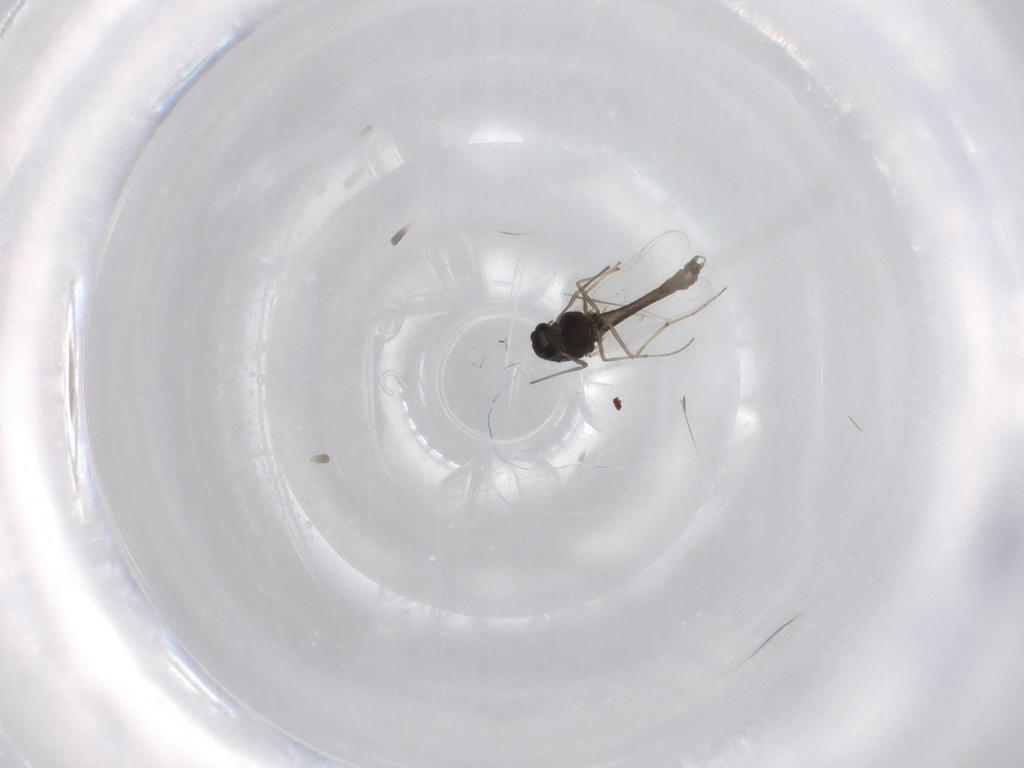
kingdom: Animalia
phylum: Arthropoda
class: Insecta
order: Diptera
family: Chironomidae
